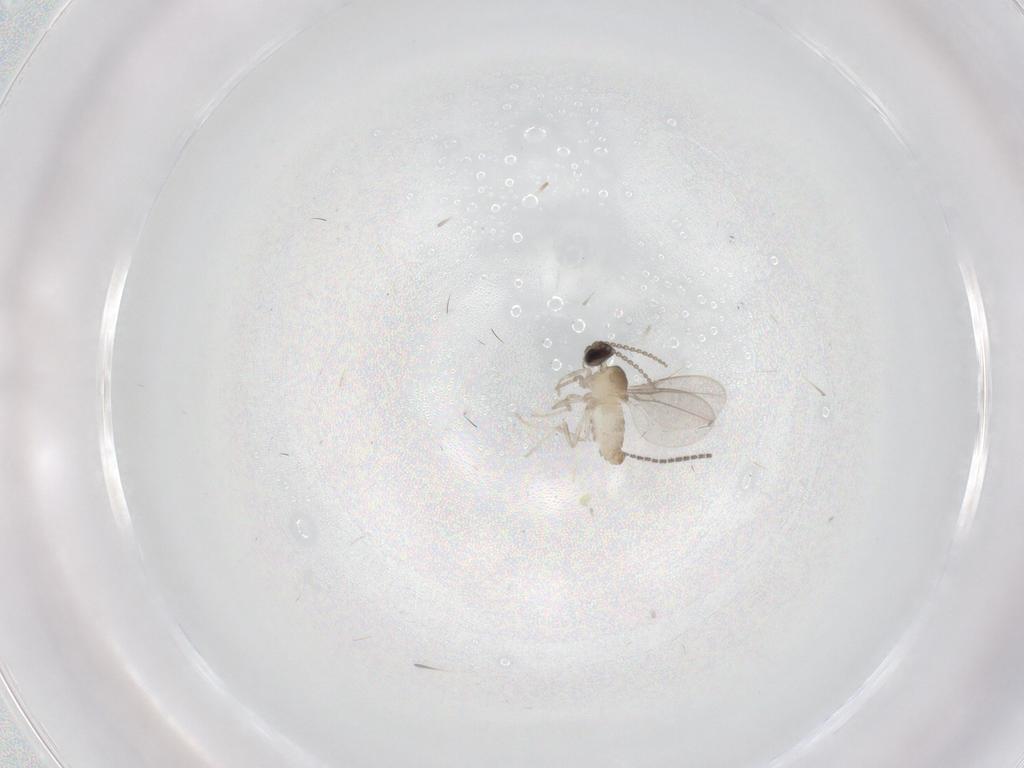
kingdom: Animalia
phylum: Arthropoda
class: Insecta
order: Diptera
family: Cecidomyiidae
